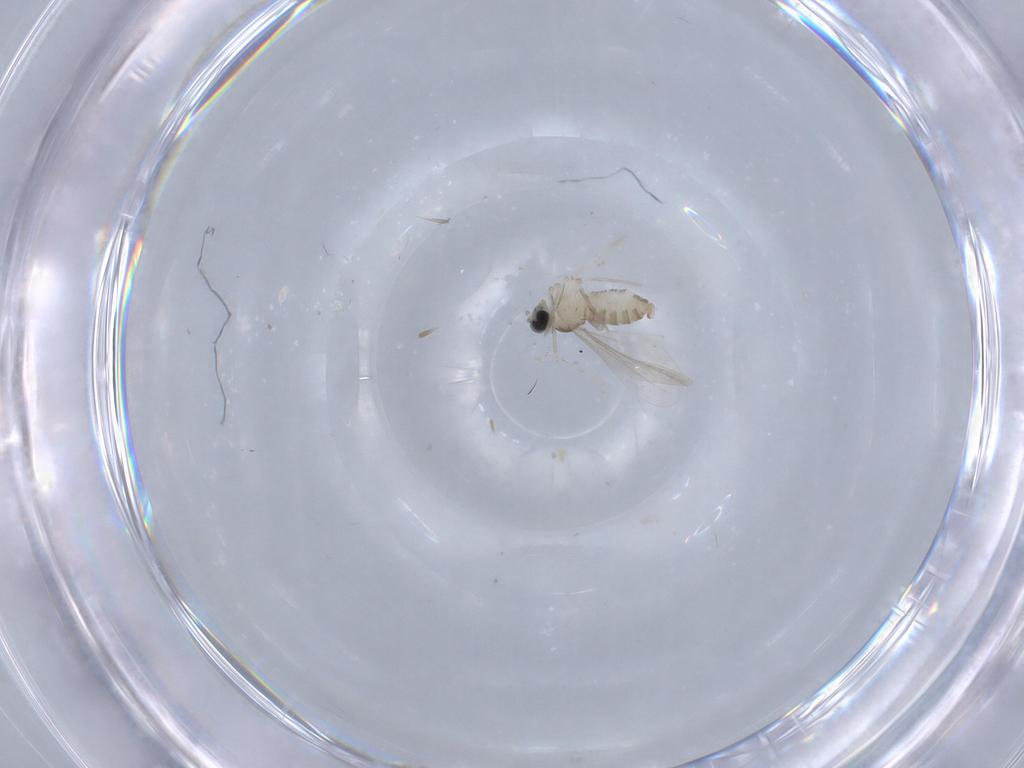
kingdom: Animalia
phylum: Arthropoda
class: Insecta
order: Diptera
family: Cecidomyiidae
